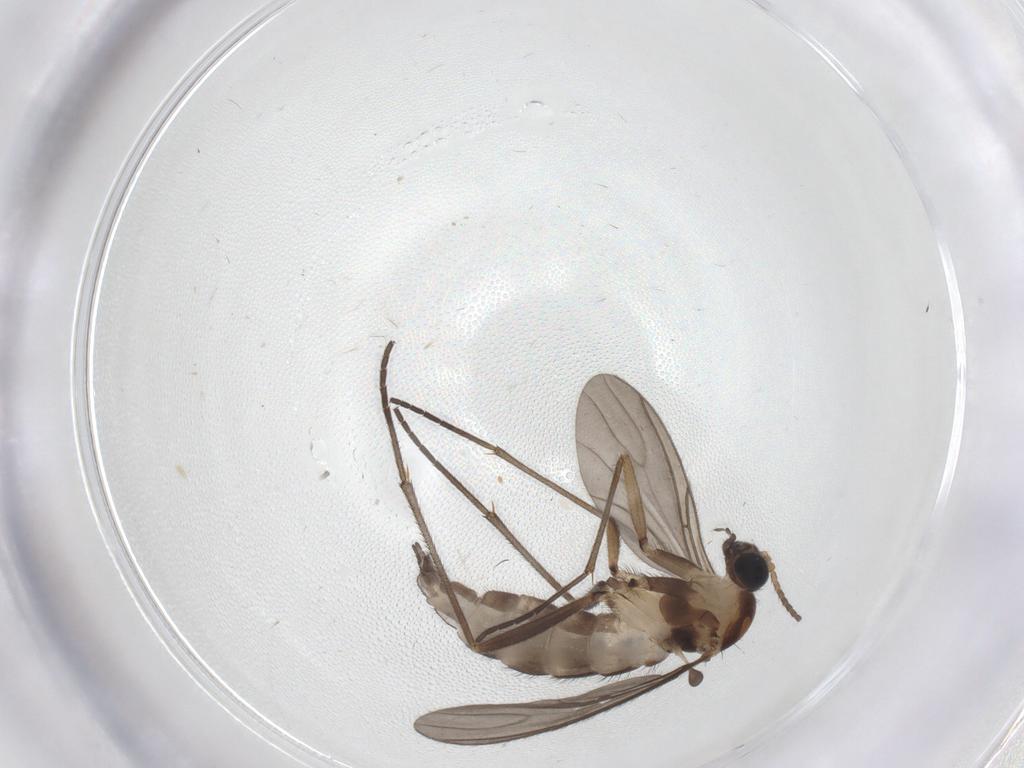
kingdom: Animalia
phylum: Arthropoda
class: Insecta
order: Diptera
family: Sciaridae
